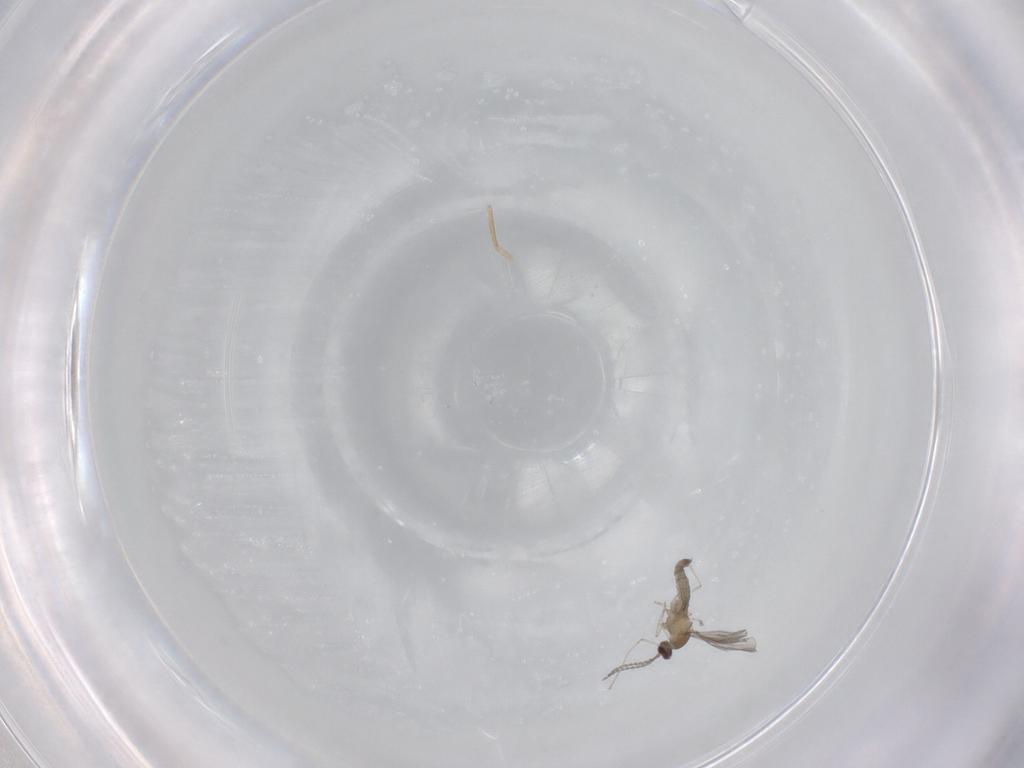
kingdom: Animalia
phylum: Arthropoda
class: Insecta
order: Diptera
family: Cecidomyiidae
